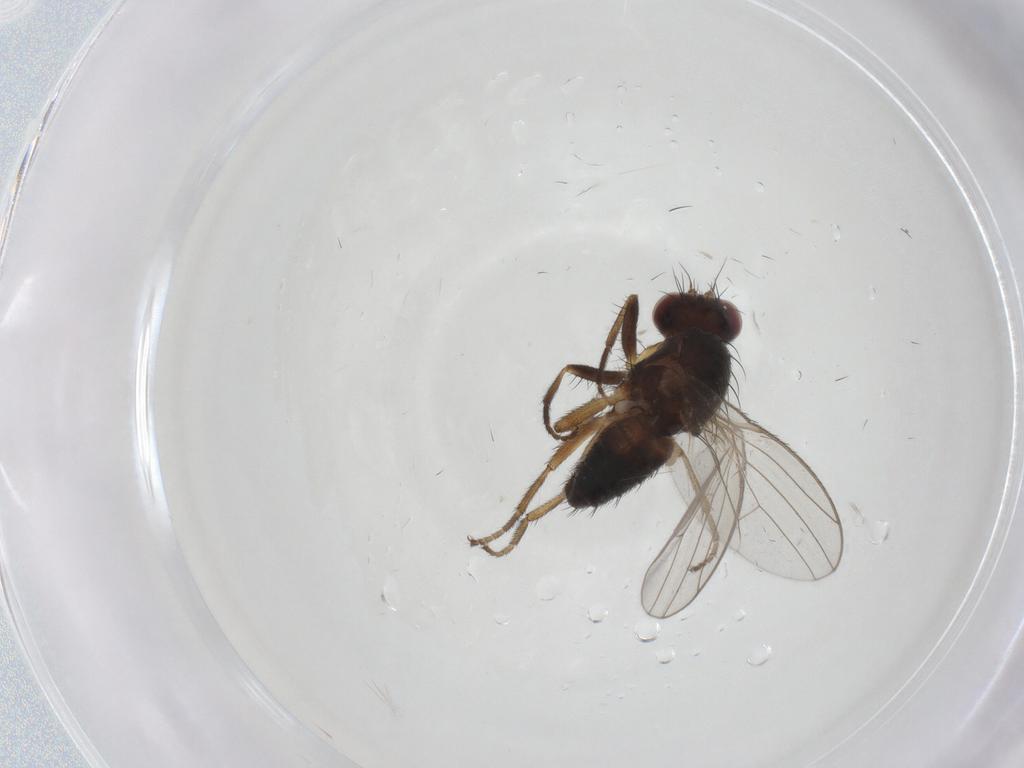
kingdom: Animalia
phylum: Arthropoda
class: Insecta
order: Diptera
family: Heleomyzidae
